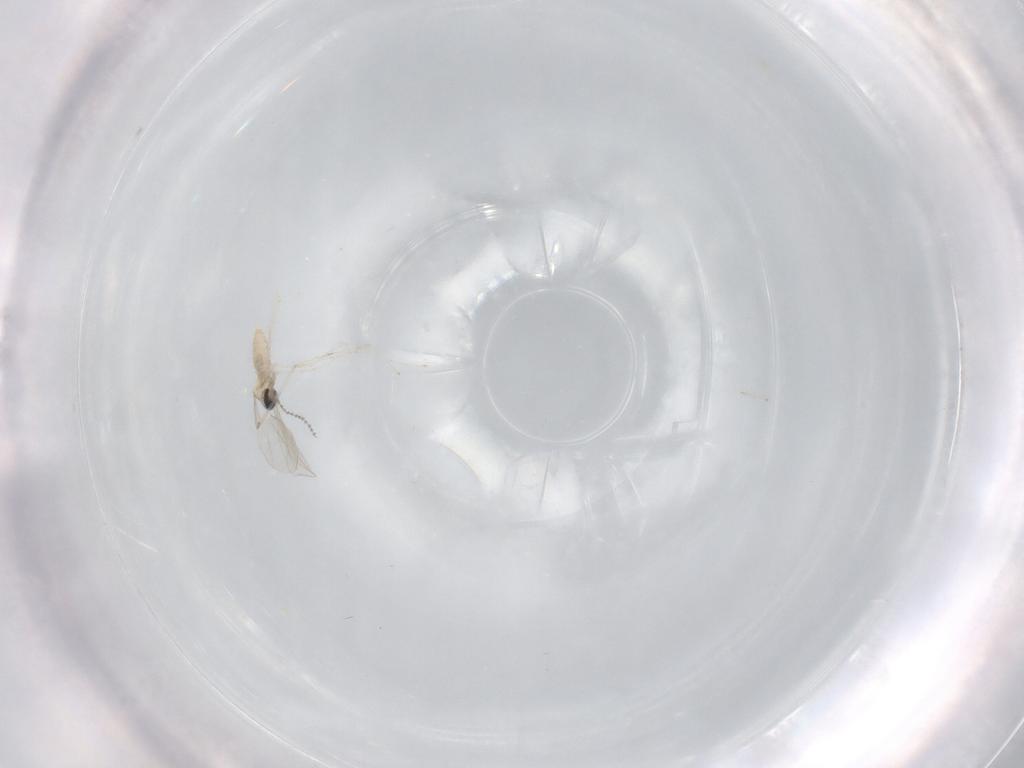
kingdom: Animalia
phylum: Arthropoda
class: Insecta
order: Diptera
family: Cecidomyiidae
